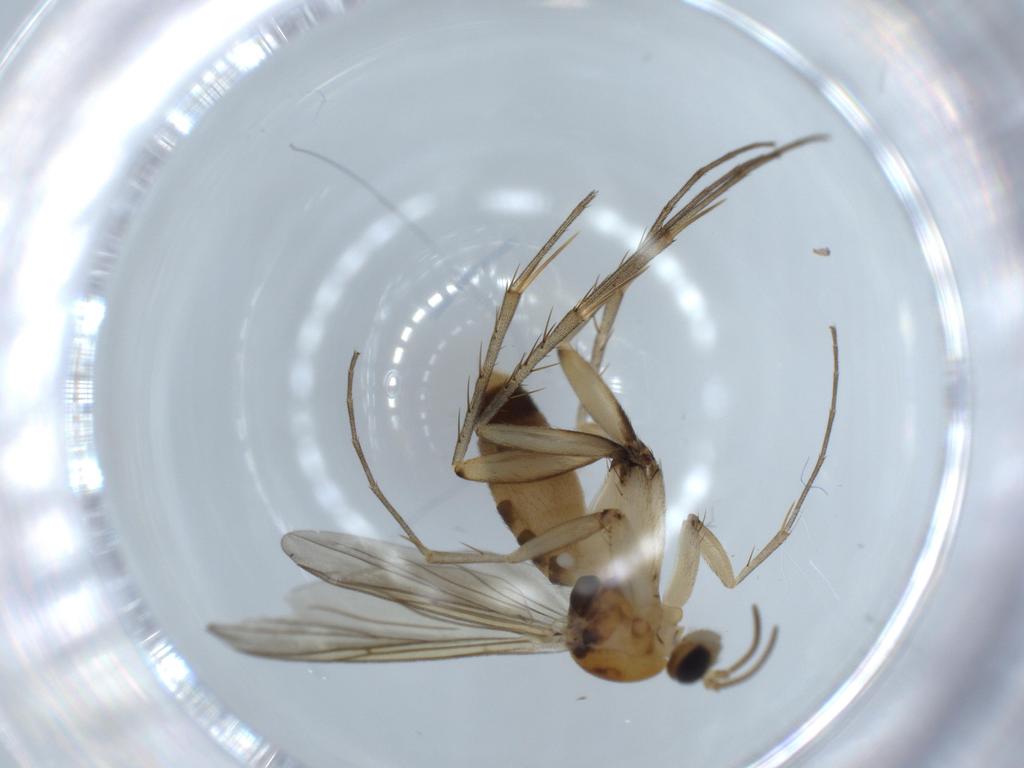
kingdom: Animalia
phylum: Arthropoda
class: Insecta
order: Diptera
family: Mycetophilidae
